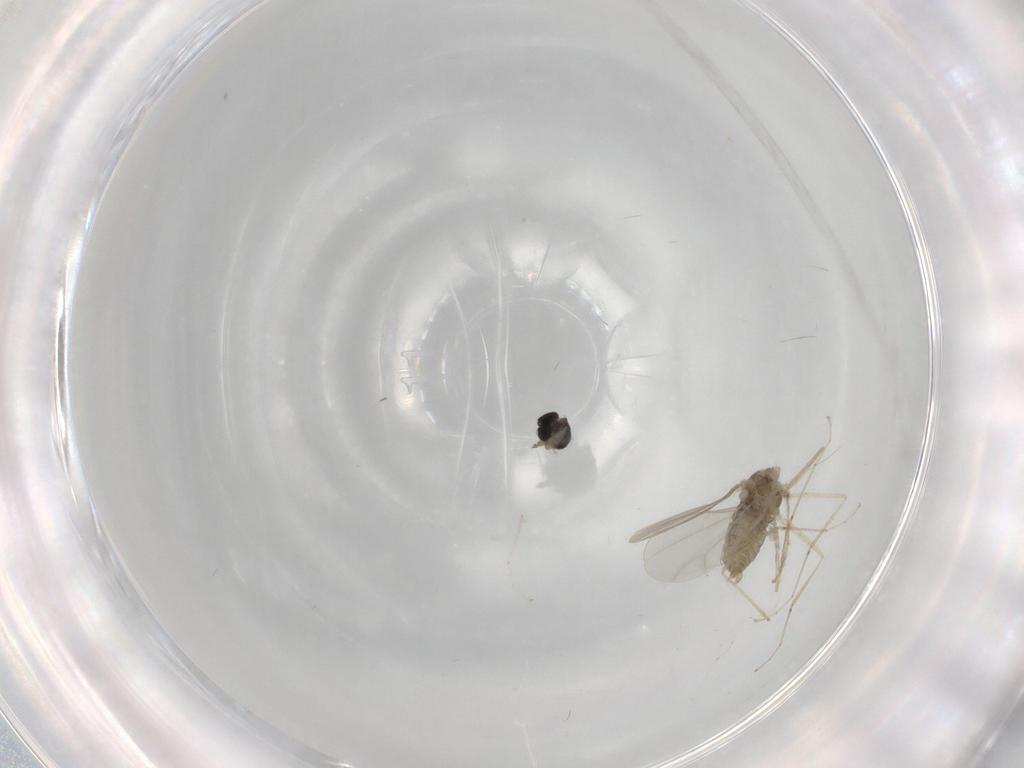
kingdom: Animalia
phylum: Arthropoda
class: Insecta
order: Diptera
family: Cecidomyiidae
